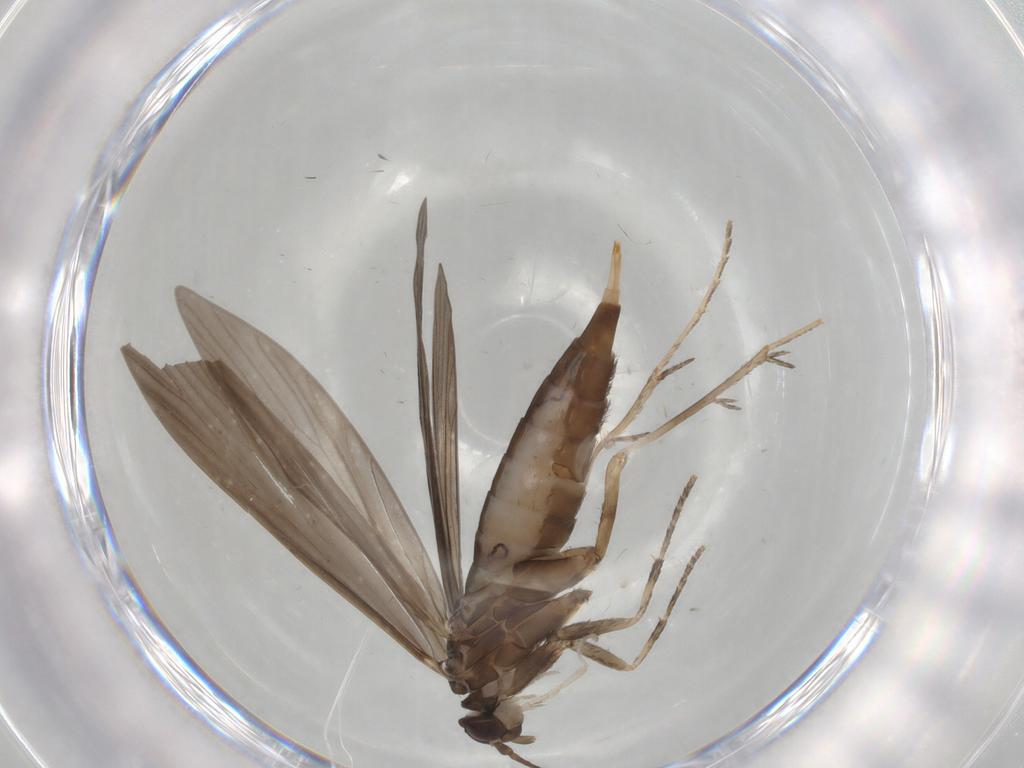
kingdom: Animalia
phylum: Arthropoda
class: Insecta
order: Trichoptera
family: Xiphocentronidae
